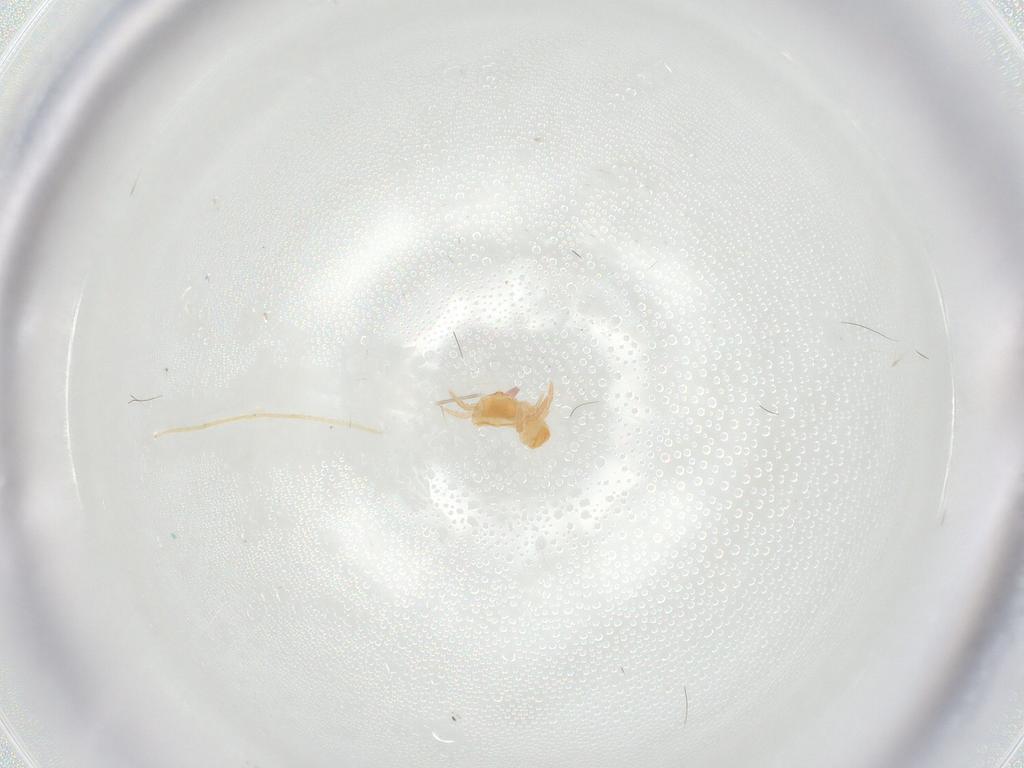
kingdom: Animalia
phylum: Arthropoda
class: Arachnida
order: Mesostigmata
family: Sejidae
